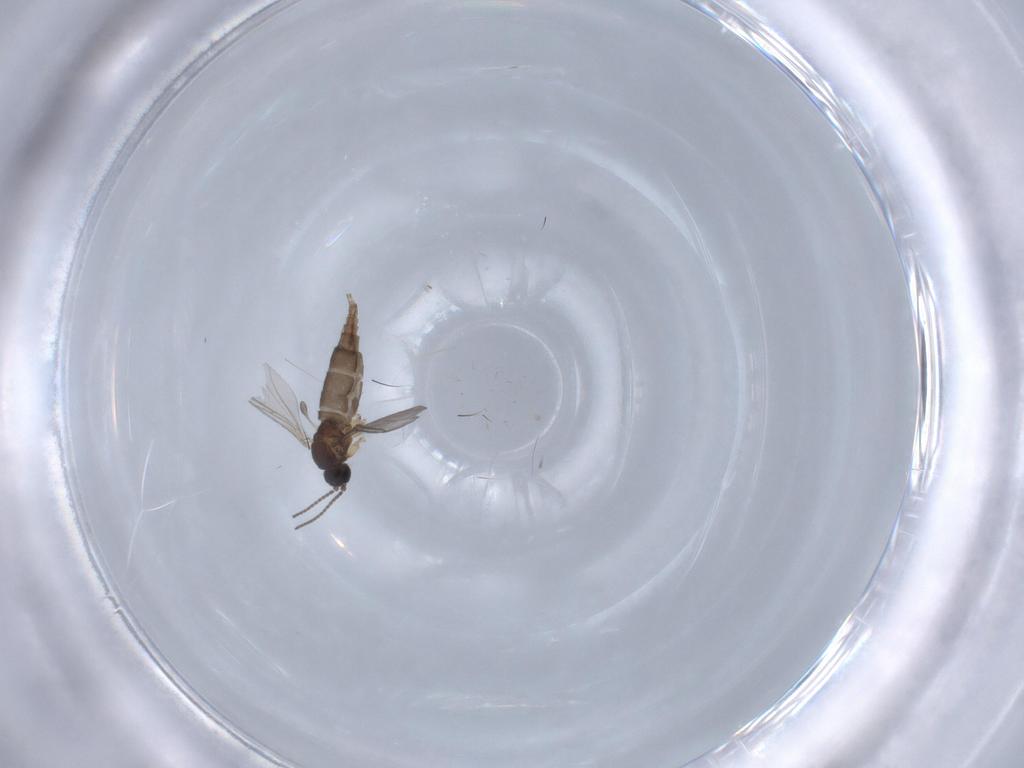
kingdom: Animalia
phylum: Arthropoda
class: Insecta
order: Diptera
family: Sciaridae
